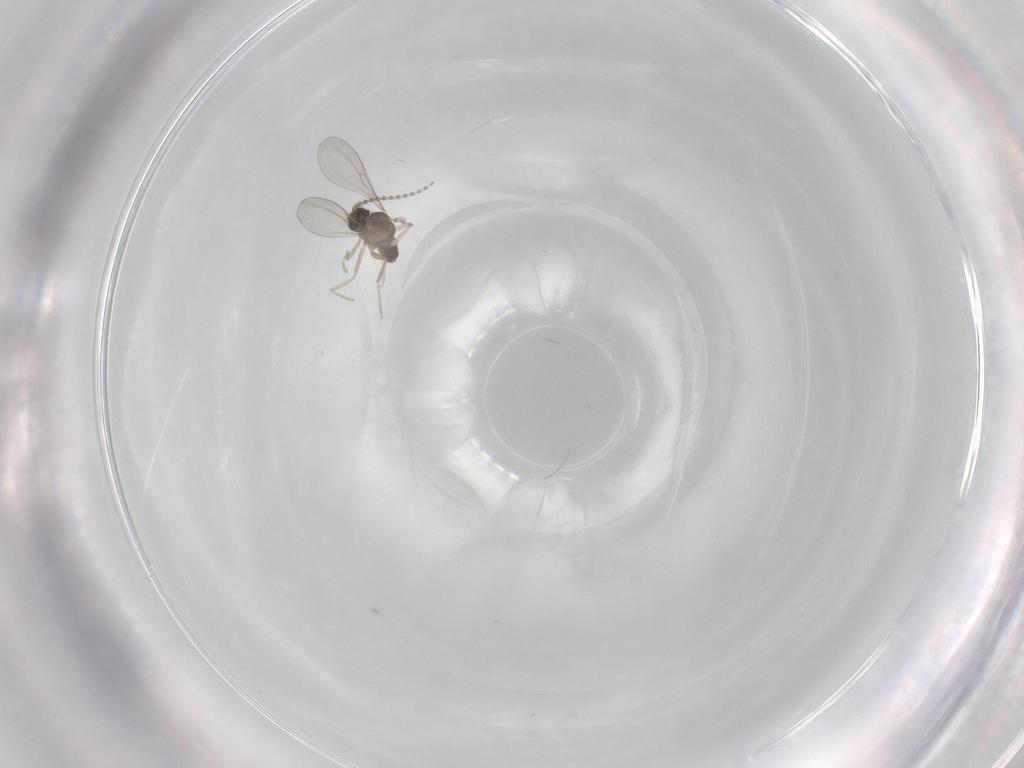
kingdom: Animalia
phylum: Arthropoda
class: Insecta
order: Diptera
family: Cecidomyiidae
